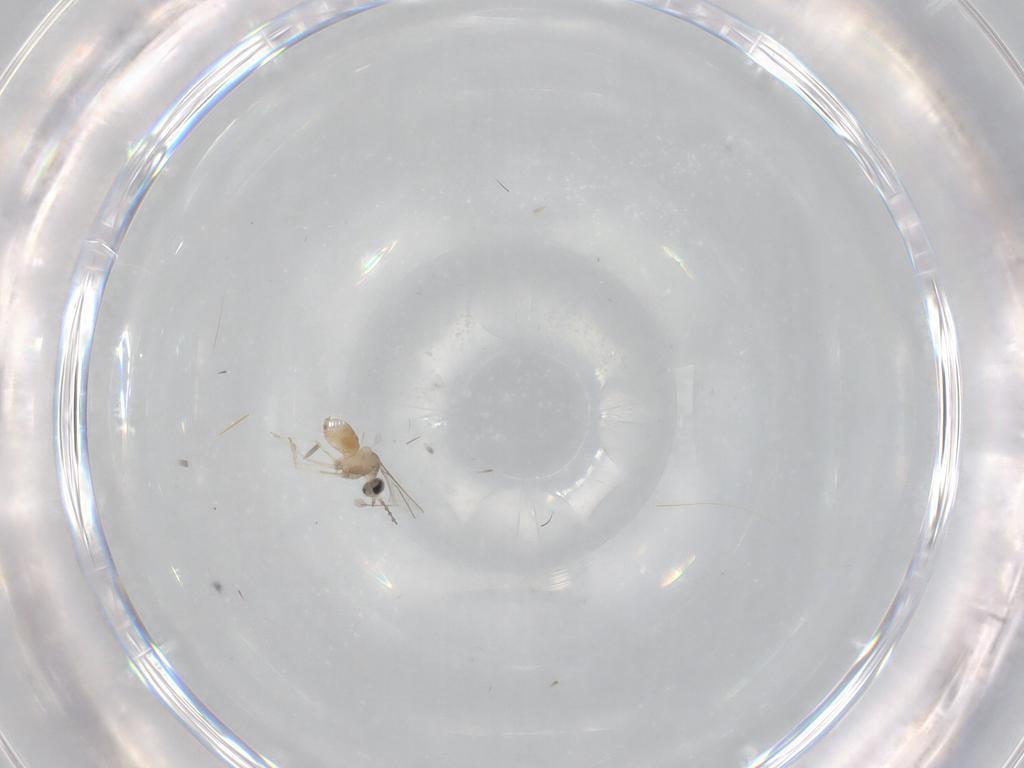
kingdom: Animalia
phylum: Arthropoda
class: Insecta
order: Diptera
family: Cecidomyiidae
